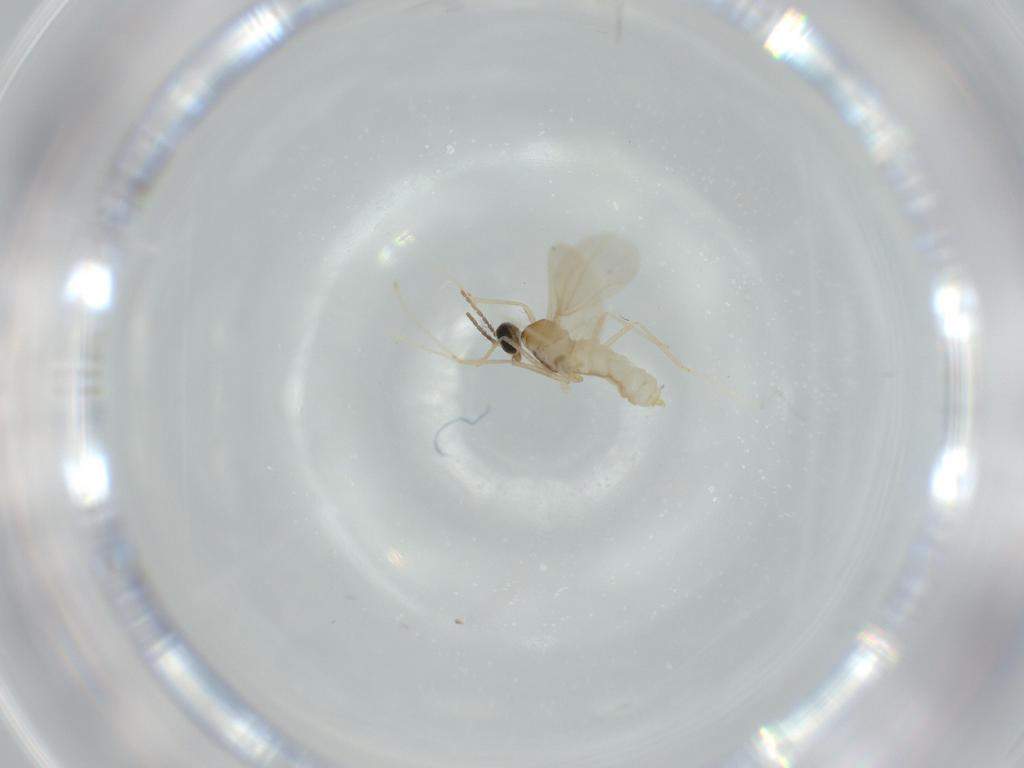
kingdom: Animalia
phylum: Arthropoda
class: Insecta
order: Diptera
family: Cecidomyiidae
